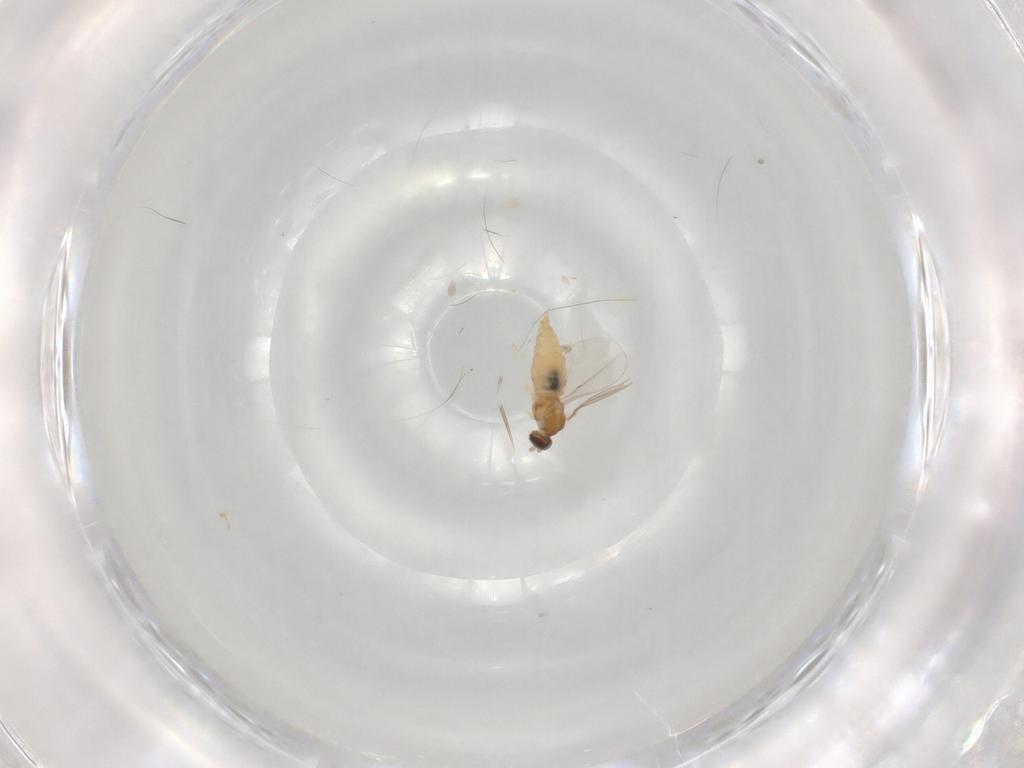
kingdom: Animalia
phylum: Arthropoda
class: Insecta
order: Diptera
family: Cecidomyiidae
